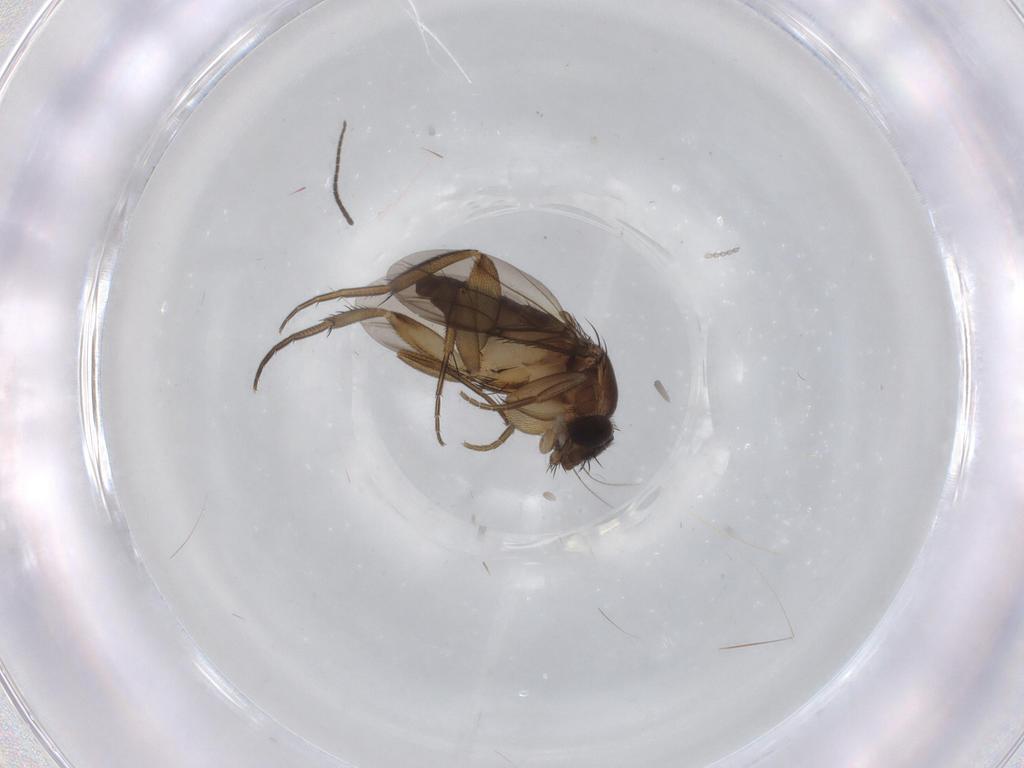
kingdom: Animalia
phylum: Arthropoda
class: Insecta
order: Diptera
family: Phoridae
